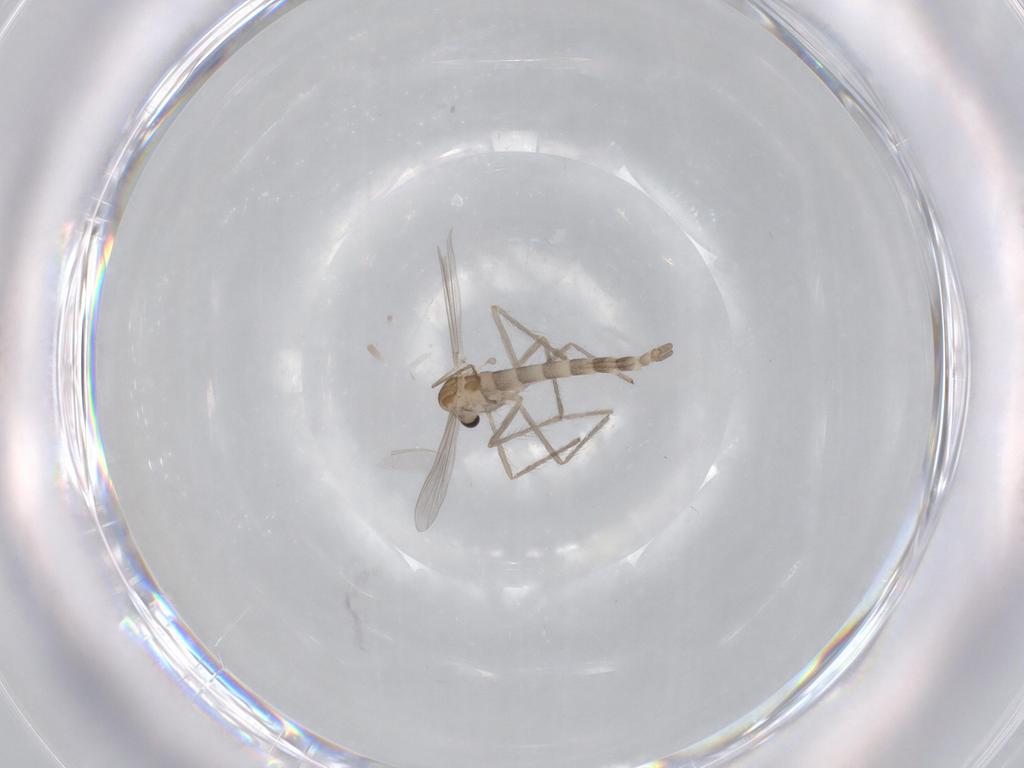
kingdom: Animalia
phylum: Arthropoda
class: Insecta
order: Diptera
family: Chironomidae
